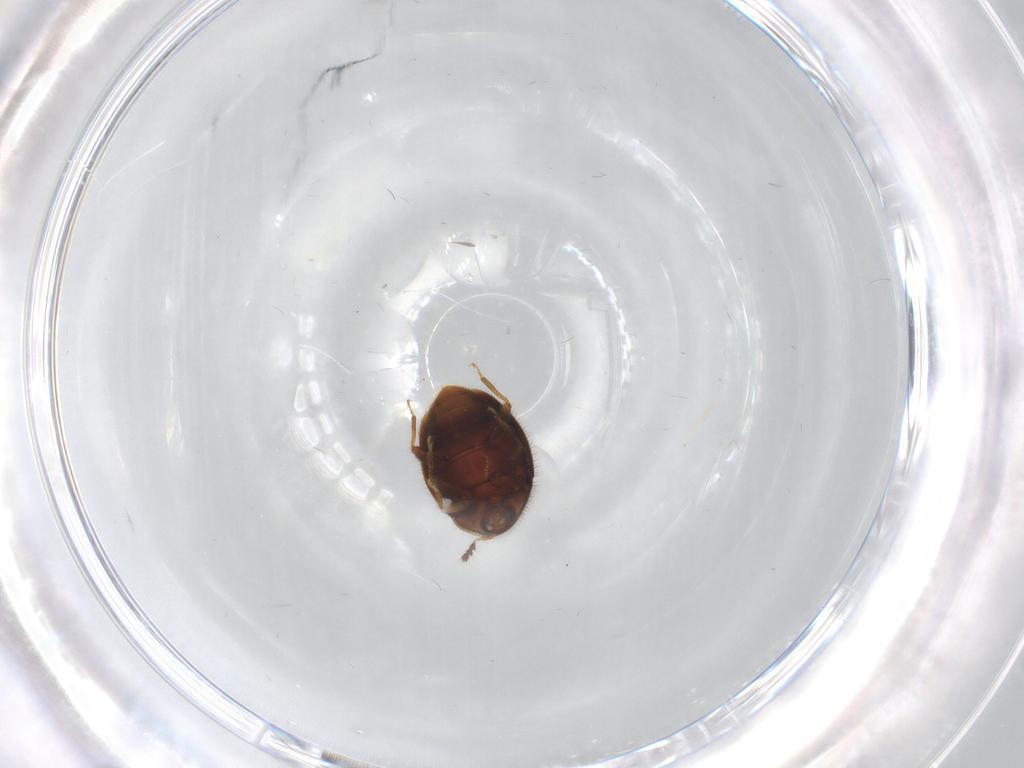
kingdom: Animalia
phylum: Arthropoda
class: Insecta
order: Coleoptera
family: Corylophidae
